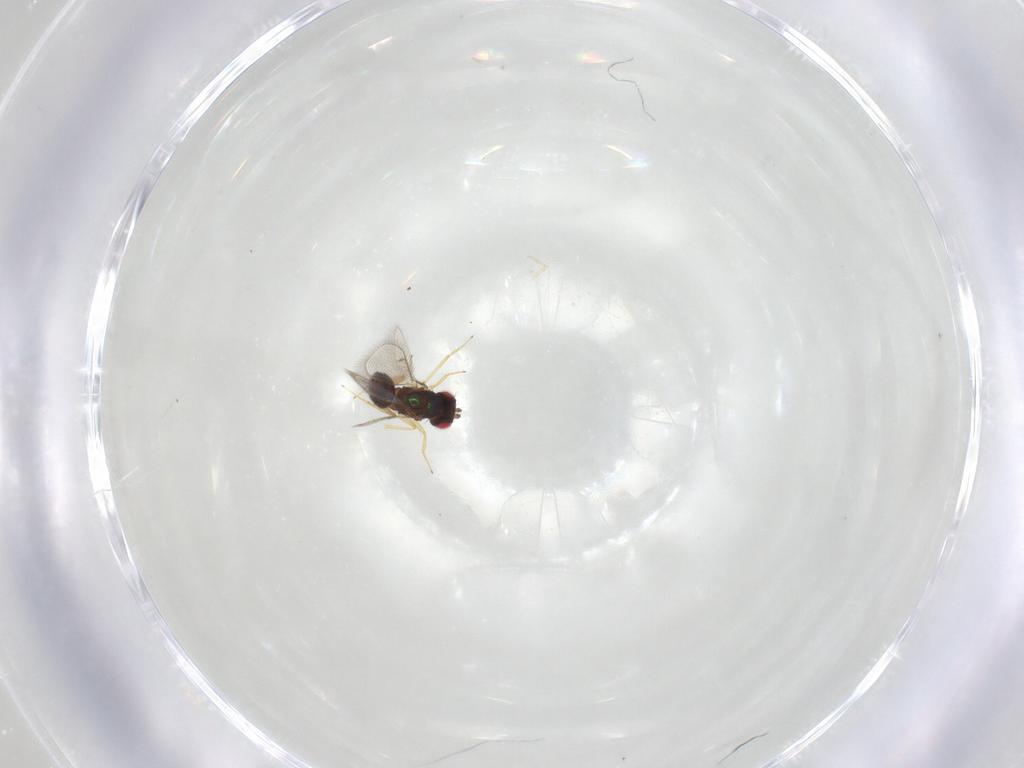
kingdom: Animalia
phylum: Arthropoda
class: Insecta
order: Hymenoptera
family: Eulophidae
